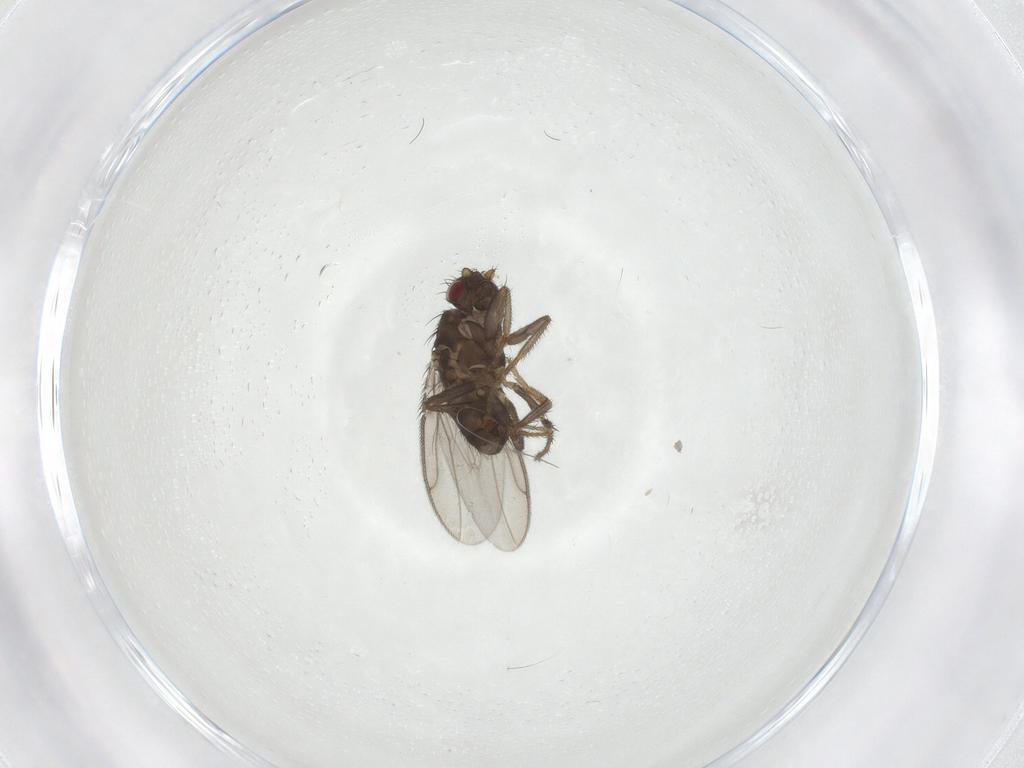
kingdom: Animalia
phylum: Arthropoda
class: Insecta
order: Diptera
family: Sphaeroceridae
